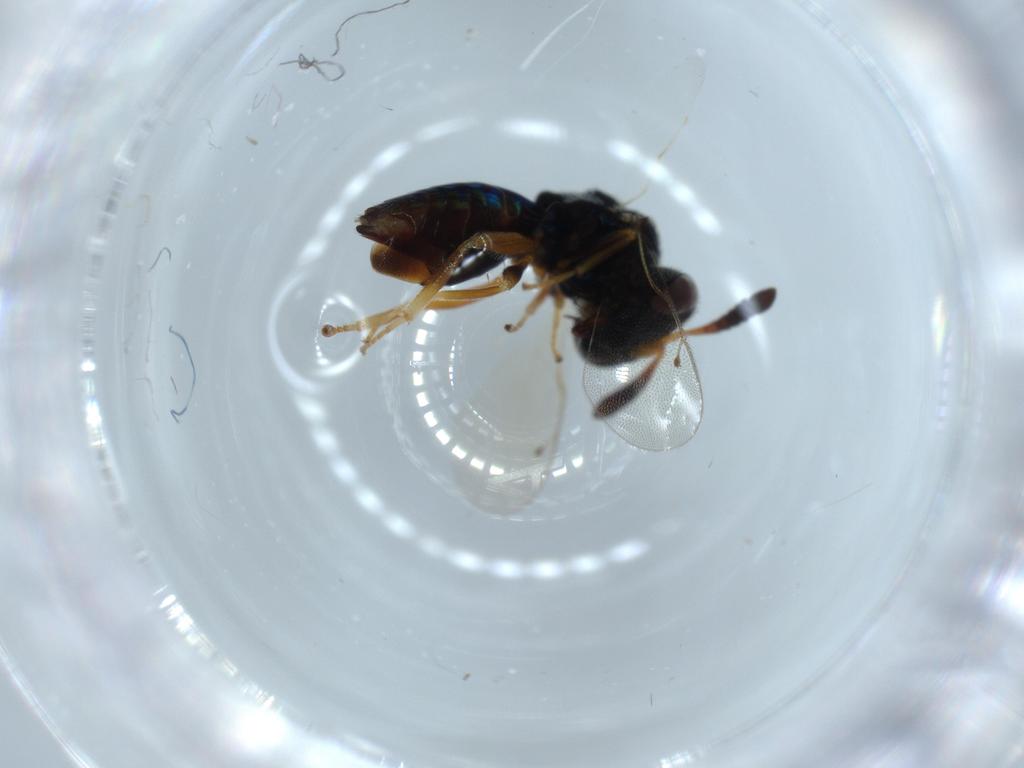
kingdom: Animalia
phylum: Arthropoda
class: Insecta
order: Hymenoptera
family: Agaonidae
